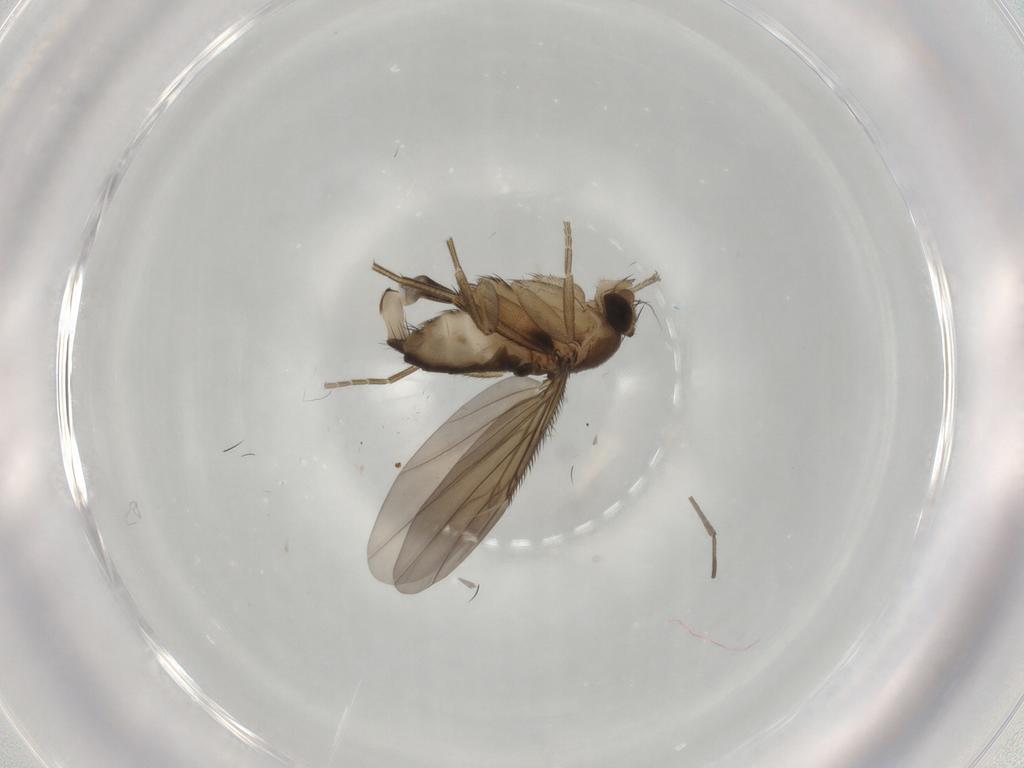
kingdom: Animalia
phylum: Arthropoda
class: Insecta
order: Diptera
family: Phoridae
